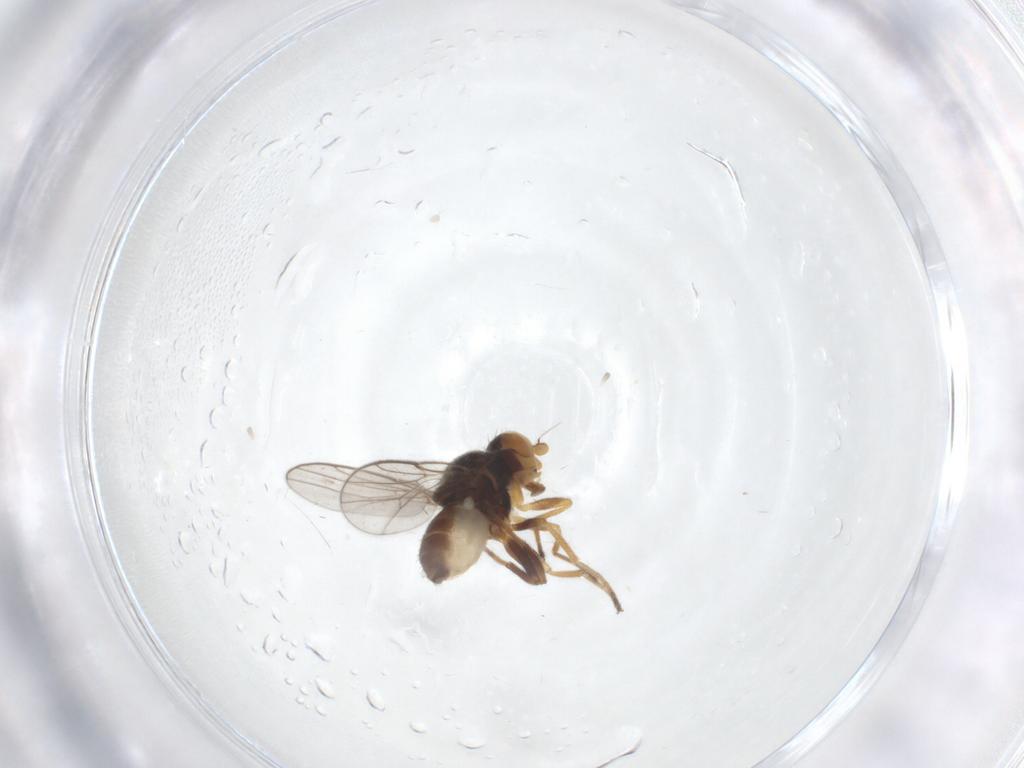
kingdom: Animalia
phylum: Arthropoda
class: Insecta
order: Diptera
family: Chloropidae
